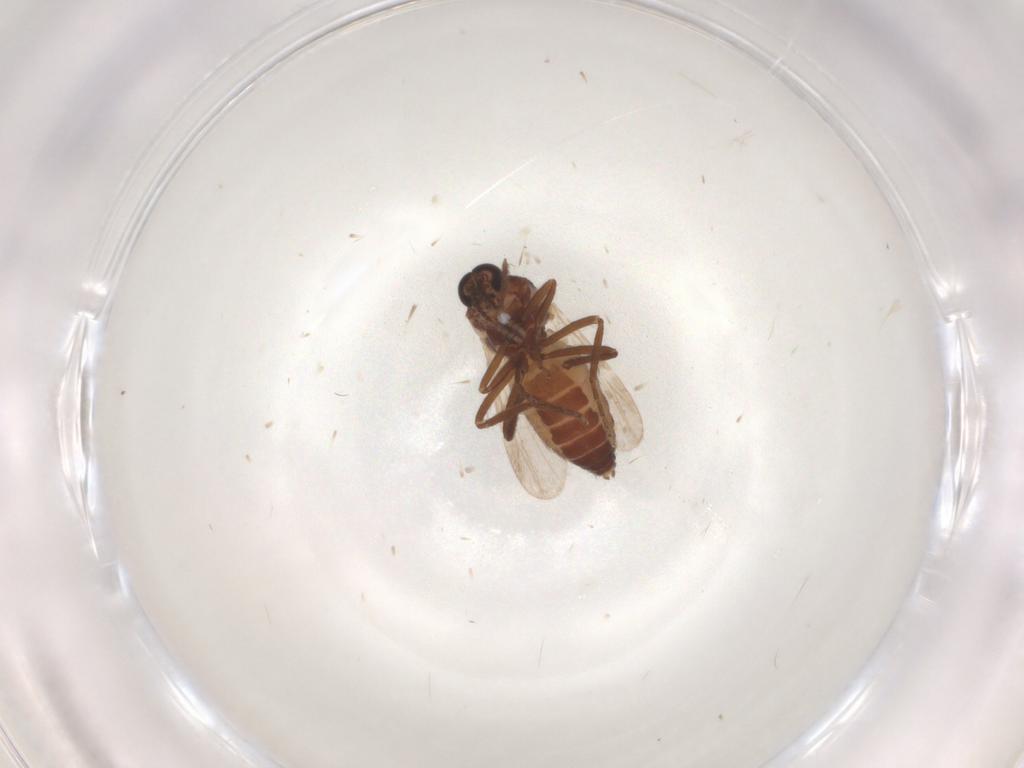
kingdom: Animalia
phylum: Arthropoda
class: Insecta
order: Diptera
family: Ceratopogonidae
